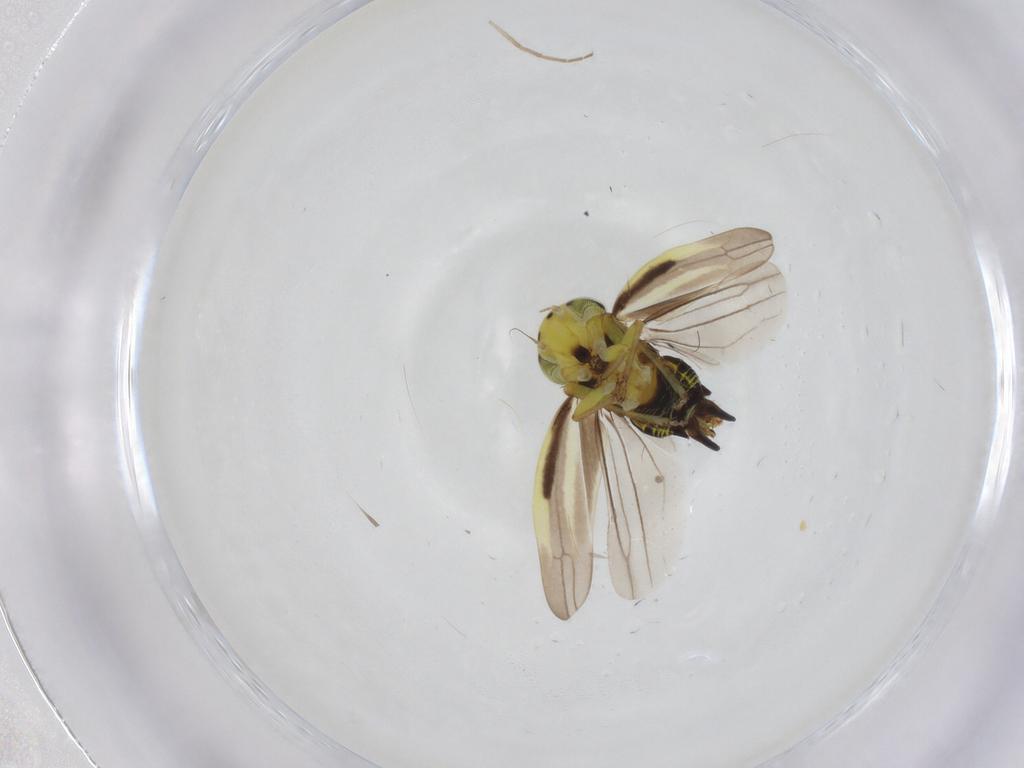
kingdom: Animalia
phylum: Arthropoda
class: Insecta
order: Hemiptera
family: Cicadellidae
